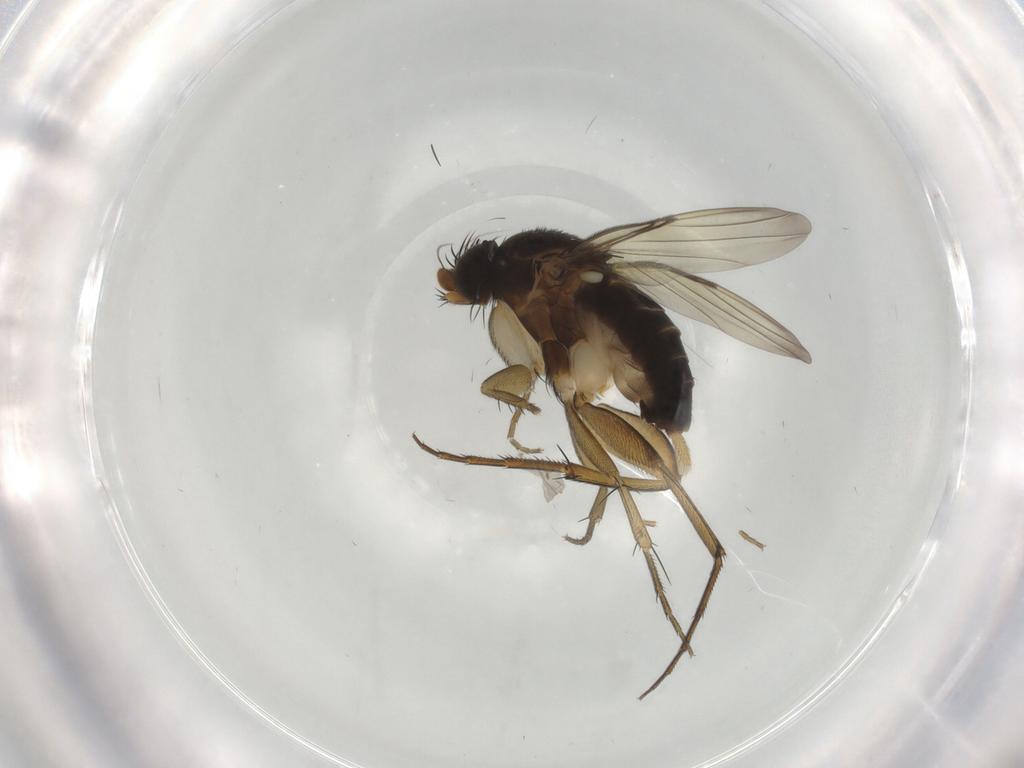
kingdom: Animalia
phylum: Arthropoda
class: Insecta
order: Diptera
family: Phoridae
